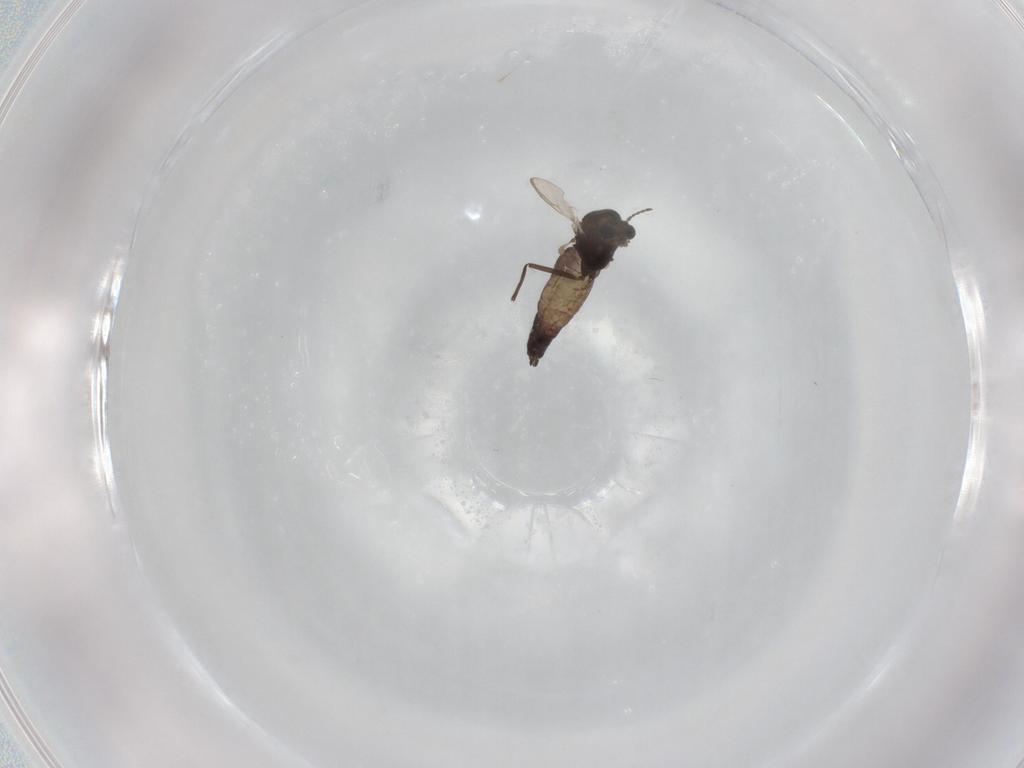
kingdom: Animalia
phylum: Arthropoda
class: Insecta
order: Diptera
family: Chironomidae
